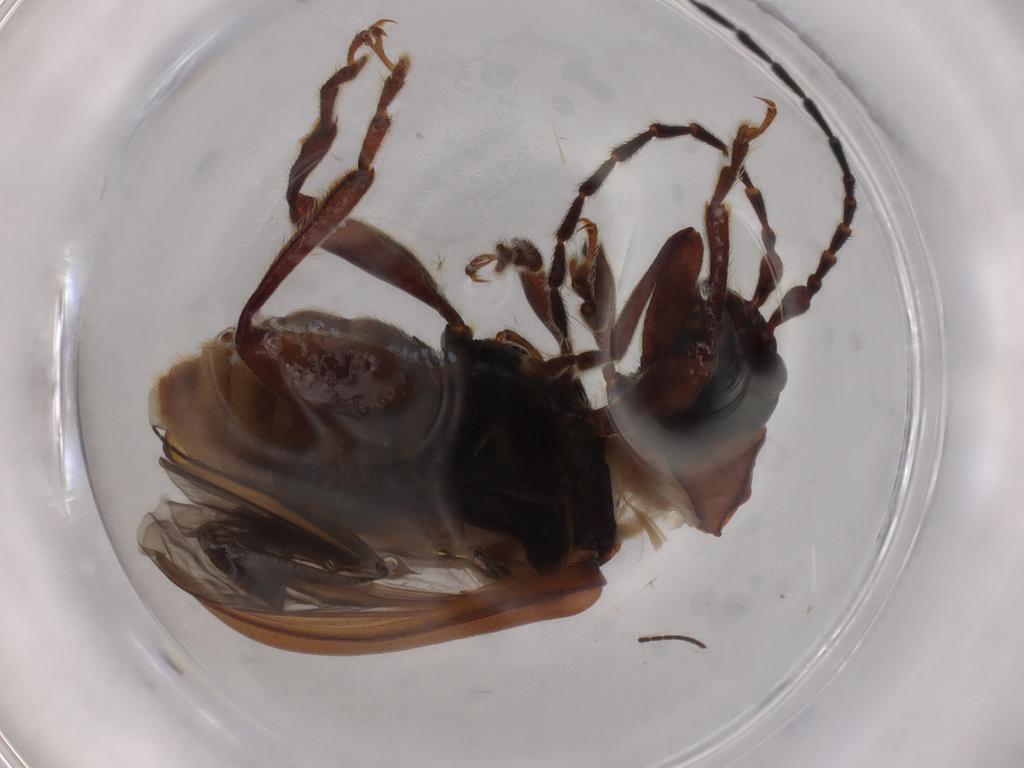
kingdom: Animalia
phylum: Arthropoda
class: Insecta
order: Coleoptera
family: Chrysomelidae
